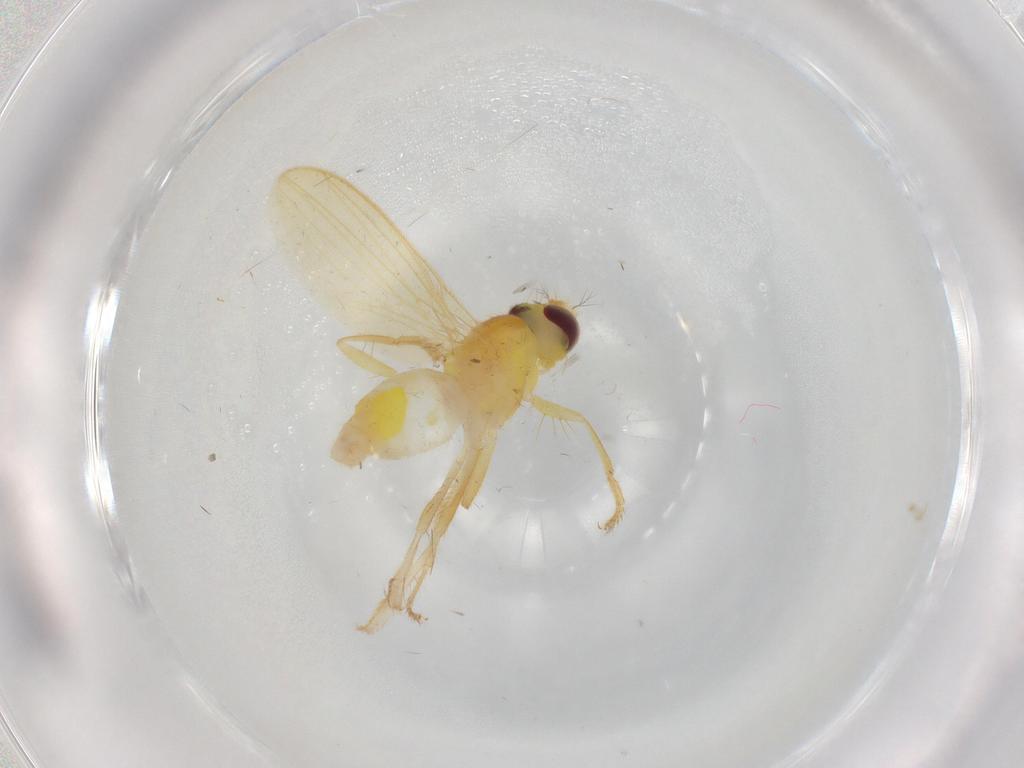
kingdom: Animalia
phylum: Arthropoda
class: Insecta
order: Diptera
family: Periscelididae
